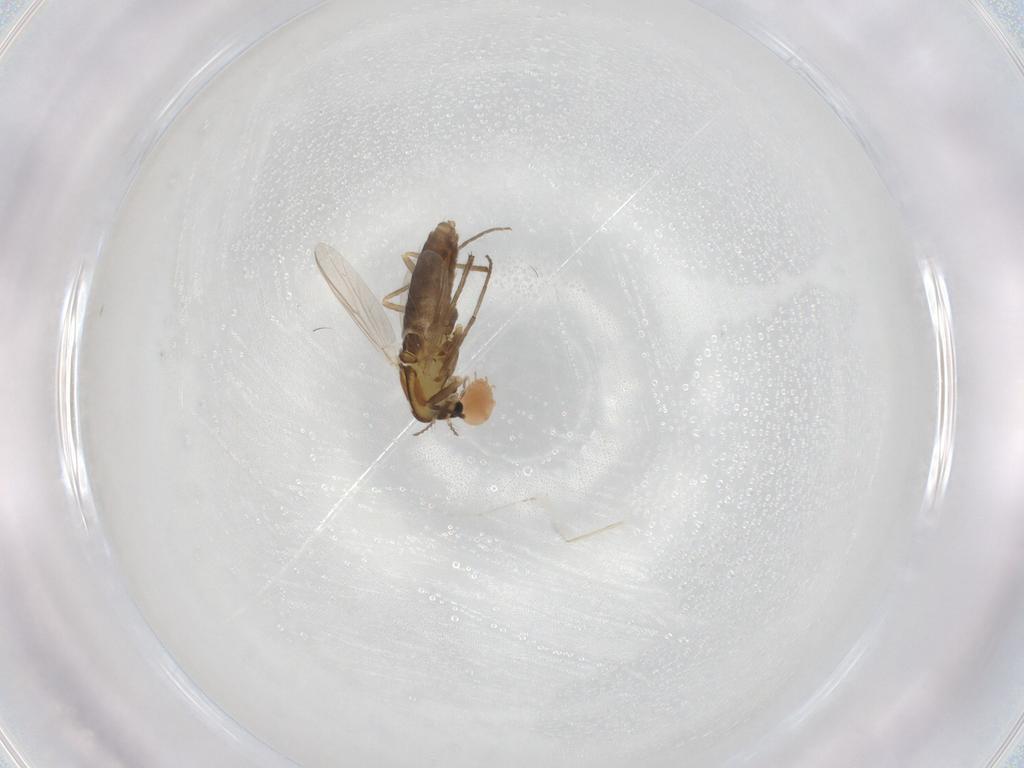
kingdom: Animalia
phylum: Arthropoda
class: Insecta
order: Diptera
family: Chironomidae
